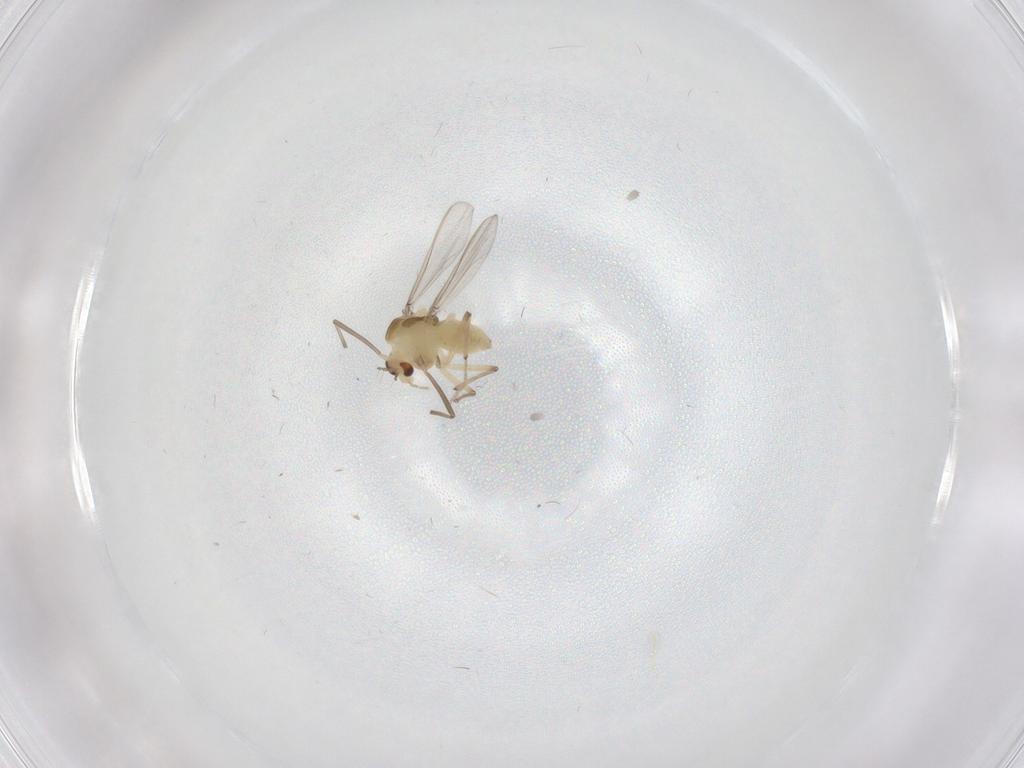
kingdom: Animalia
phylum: Arthropoda
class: Insecta
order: Diptera
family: Chironomidae
